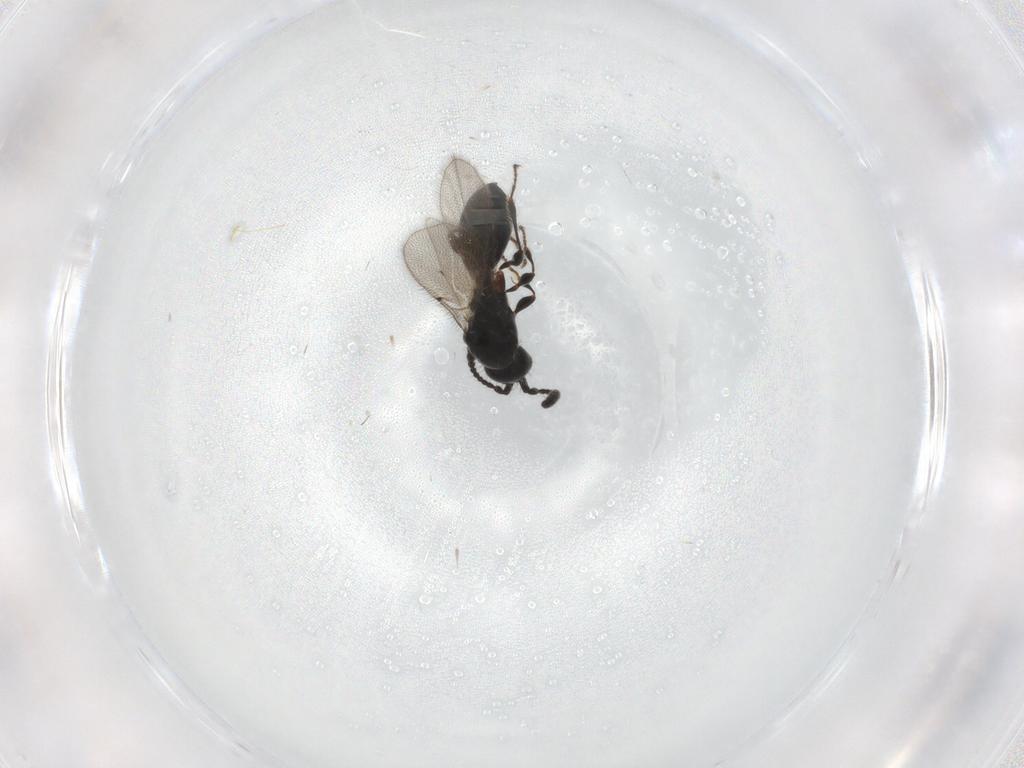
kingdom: Animalia
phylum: Arthropoda
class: Insecta
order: Hymenoptera
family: Diapriidae
